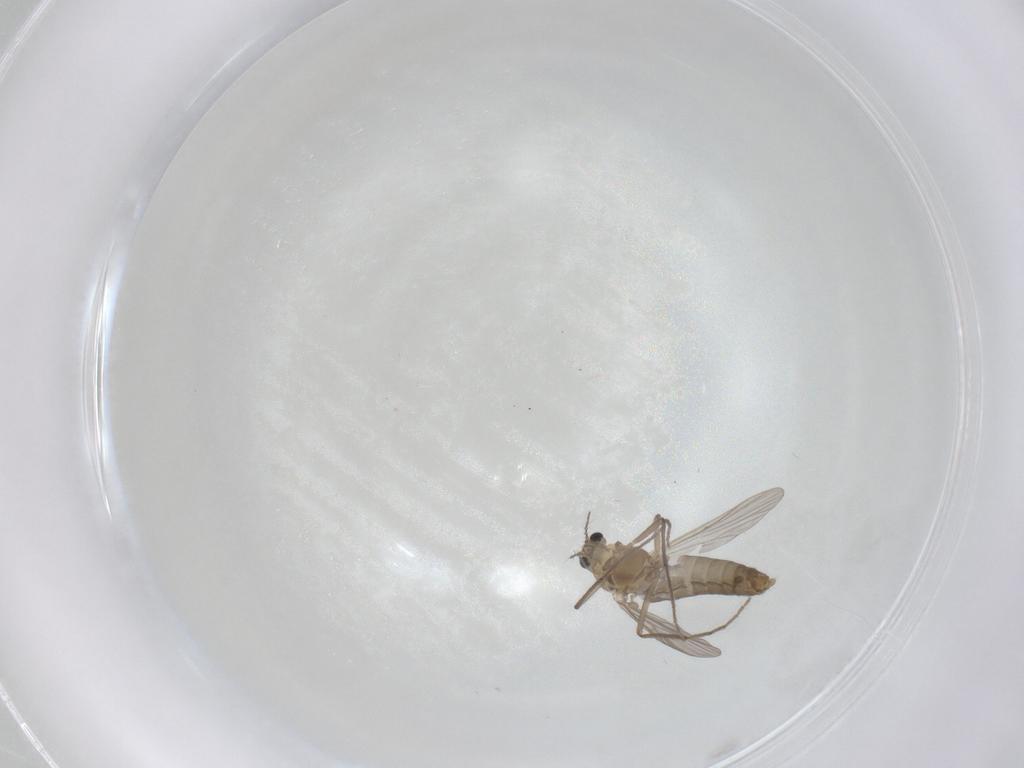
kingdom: Animalia
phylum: Arthropoda
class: Insecta
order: Diptera
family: Chironomidae
